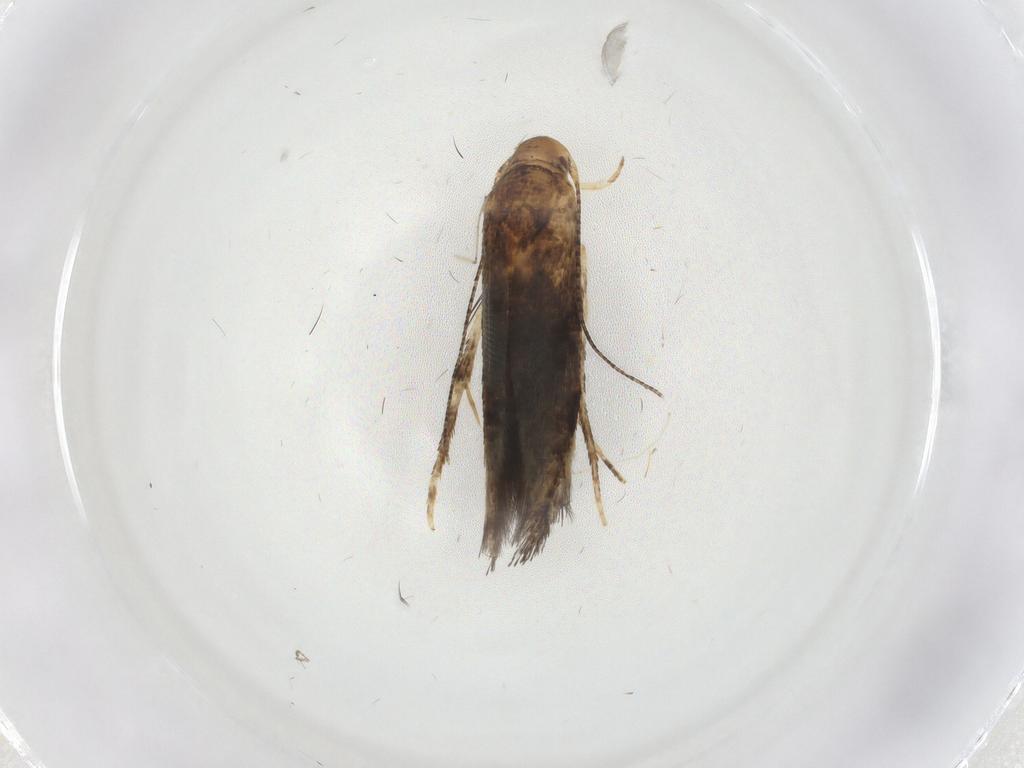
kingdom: Animalia
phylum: Arthropoda
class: Insecta
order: Lepidoptera
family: Momphidae
